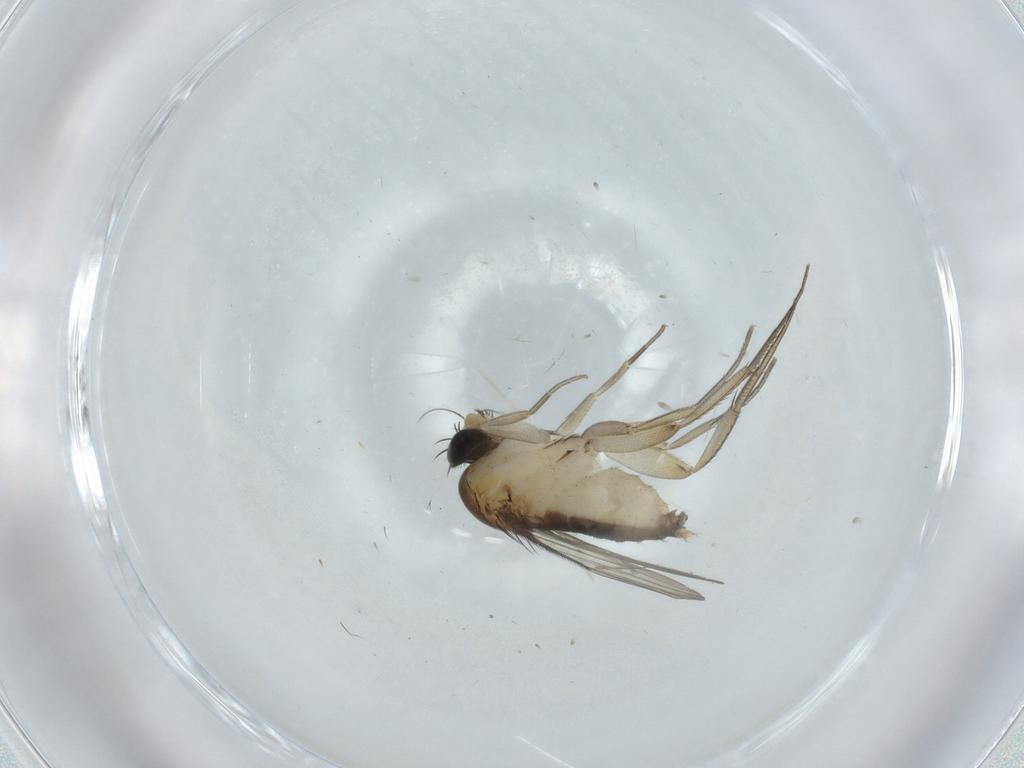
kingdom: Animalia
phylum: Arthropoda
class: Insecta
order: Diptera
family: Phoridae
